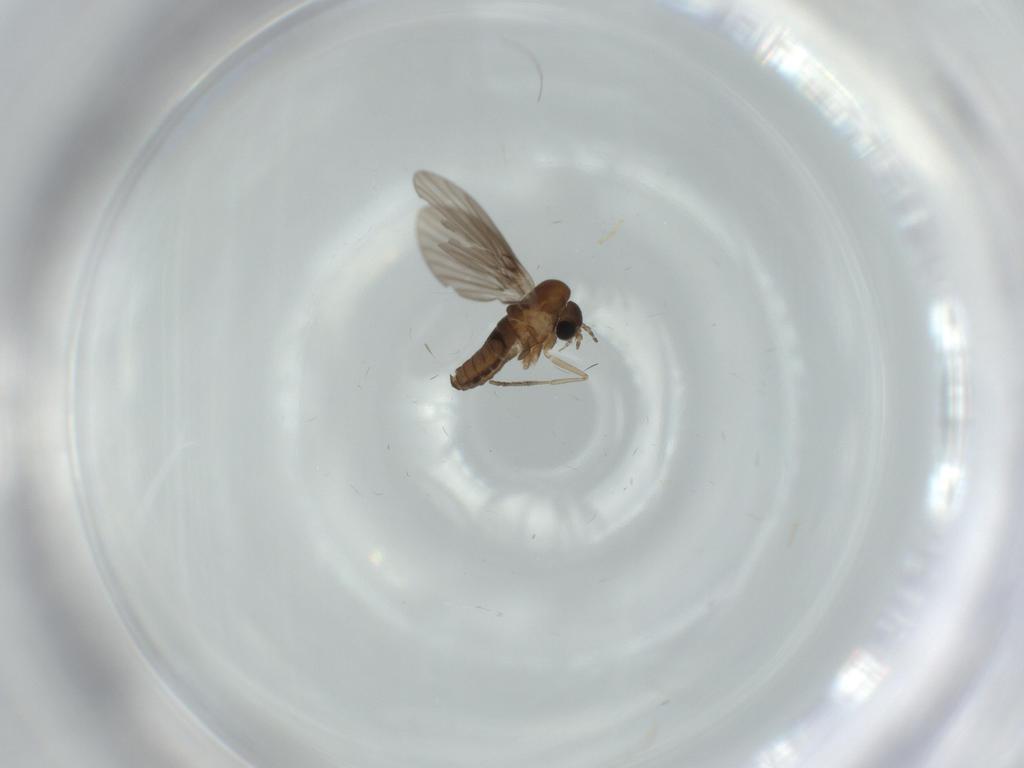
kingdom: Animalia
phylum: Arthropoda
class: Insecta
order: Diptera
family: Psychodidae
